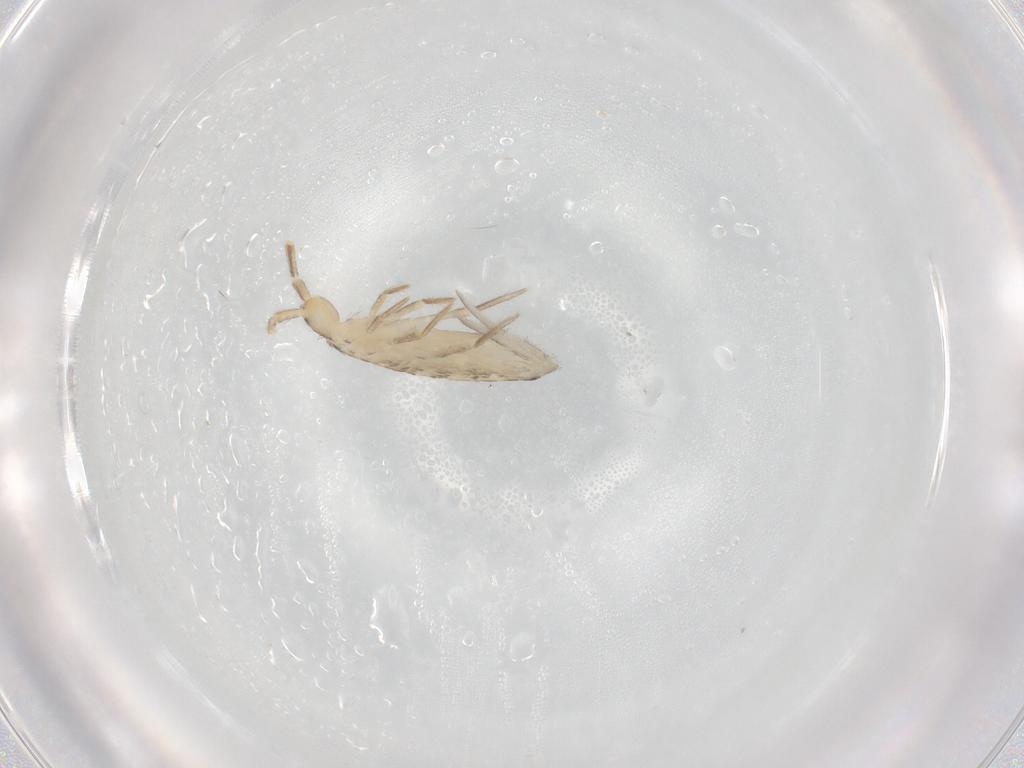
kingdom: Animalia
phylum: Arthropoda
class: Collembola
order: Entomobryomorpha
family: Entomobryidae
